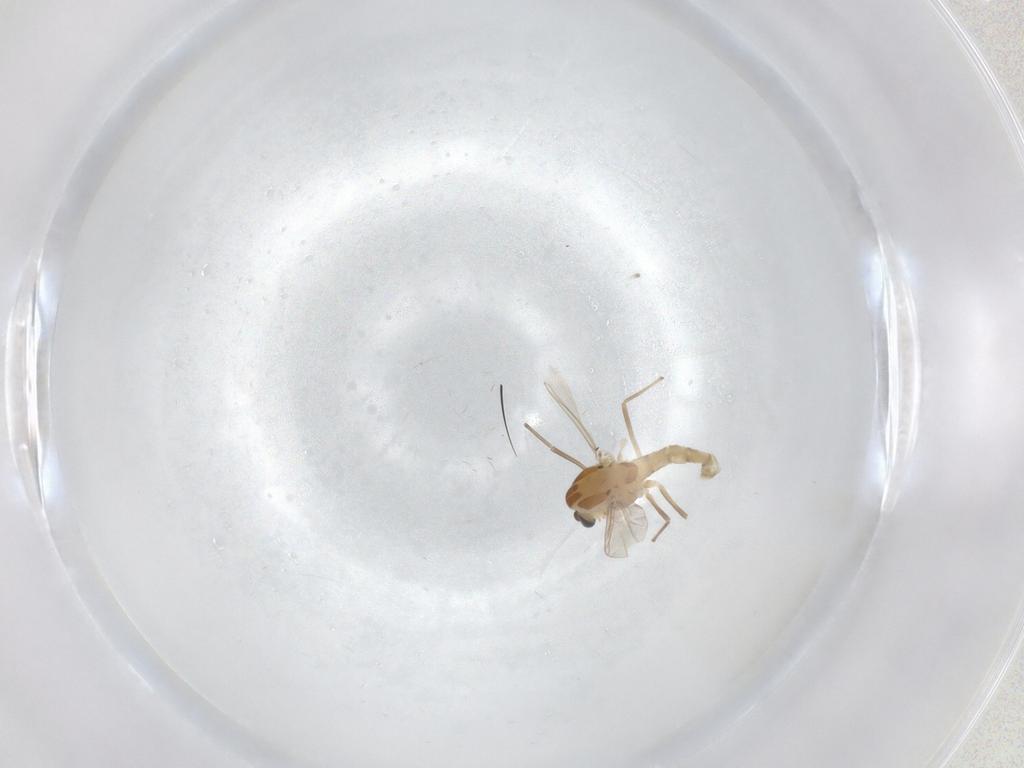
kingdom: Animalia
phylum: Arthropoda
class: Insecta
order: Diptera
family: Chironomidae
